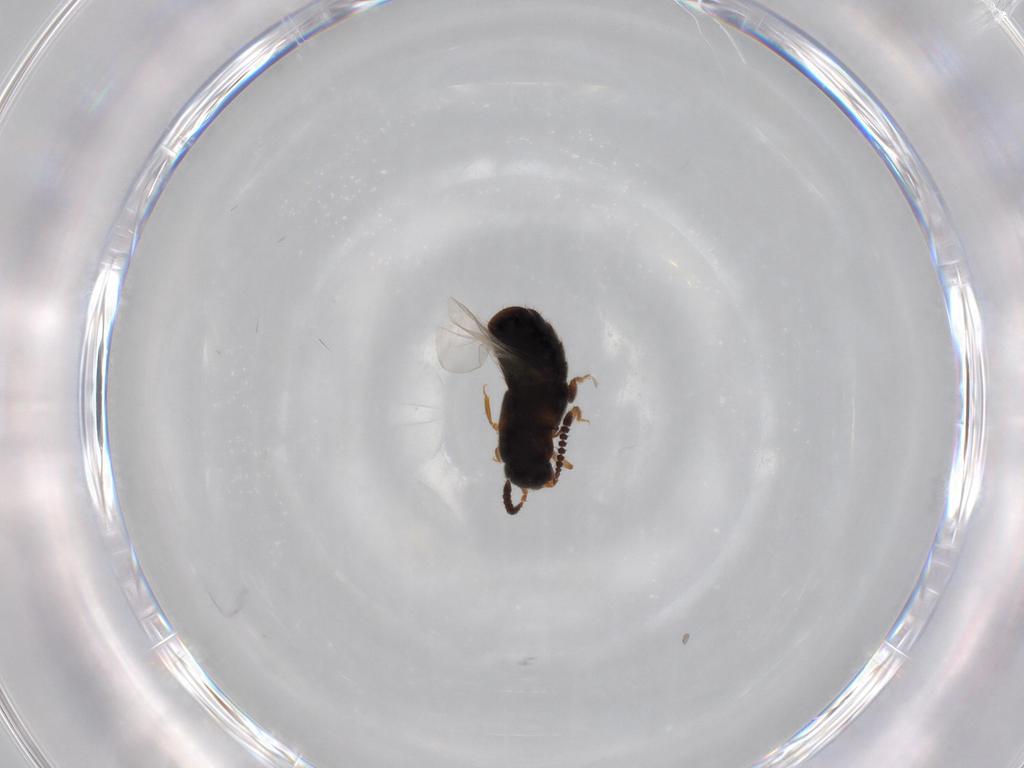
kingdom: Animalia
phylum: Arthropoda
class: Insecta
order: Coleoptera
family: Staphylinidae
